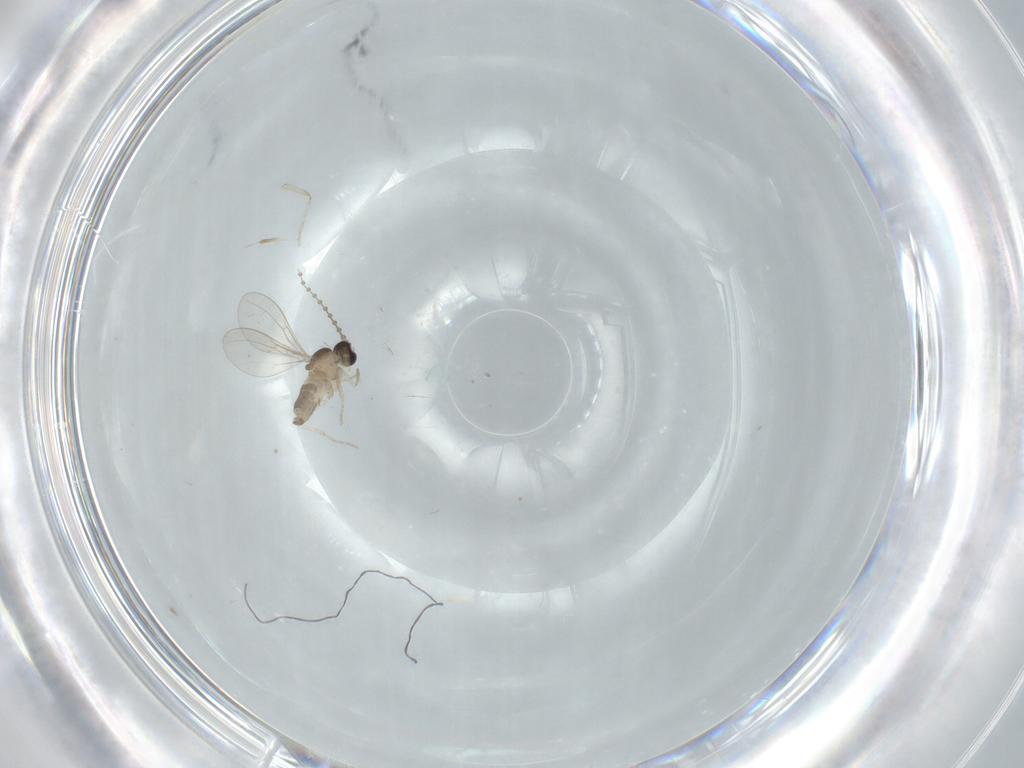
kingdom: Animalia
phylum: Arthropoda
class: Insecta
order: Diptera
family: Cecidomyiidae
